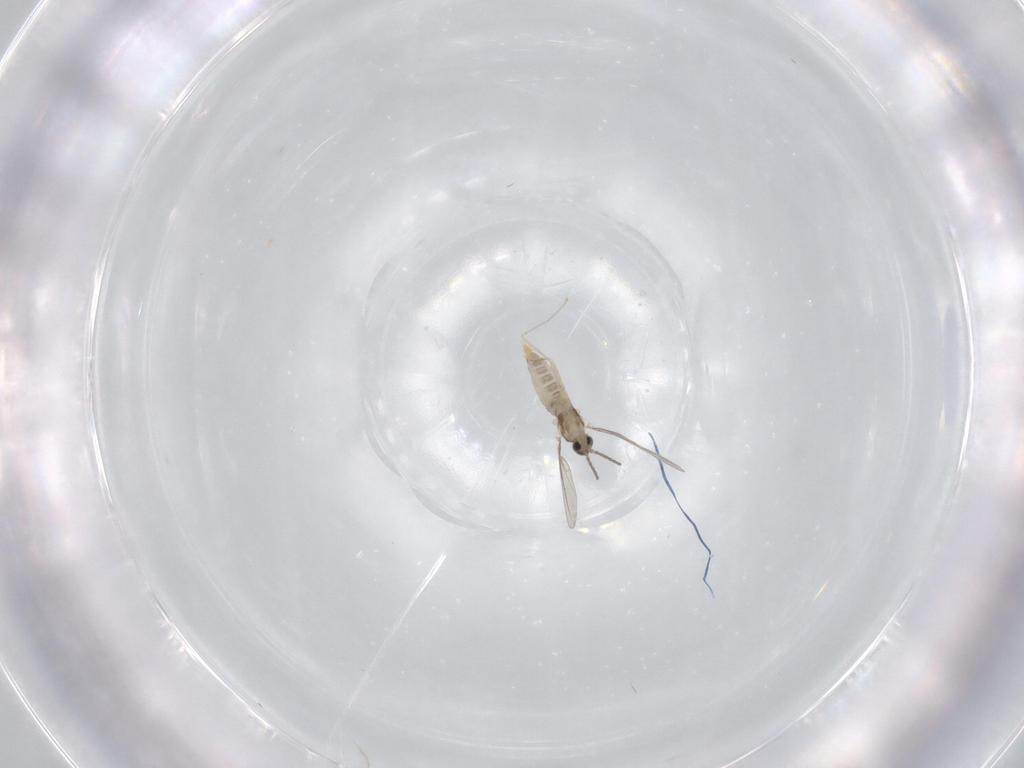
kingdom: Animalia
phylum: Arthropoda
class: Insecta
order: Diptera
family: Cecidomyiidae
